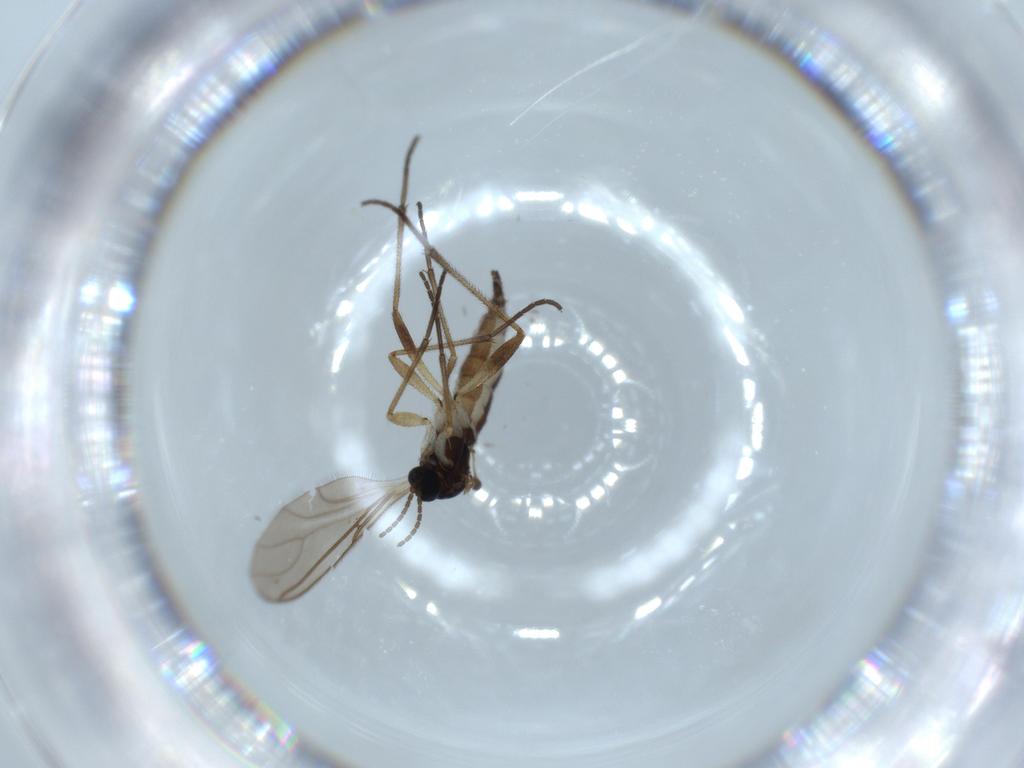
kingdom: Animalia
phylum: Arthropoda
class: Insecta
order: Diptera
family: Sciaridae
